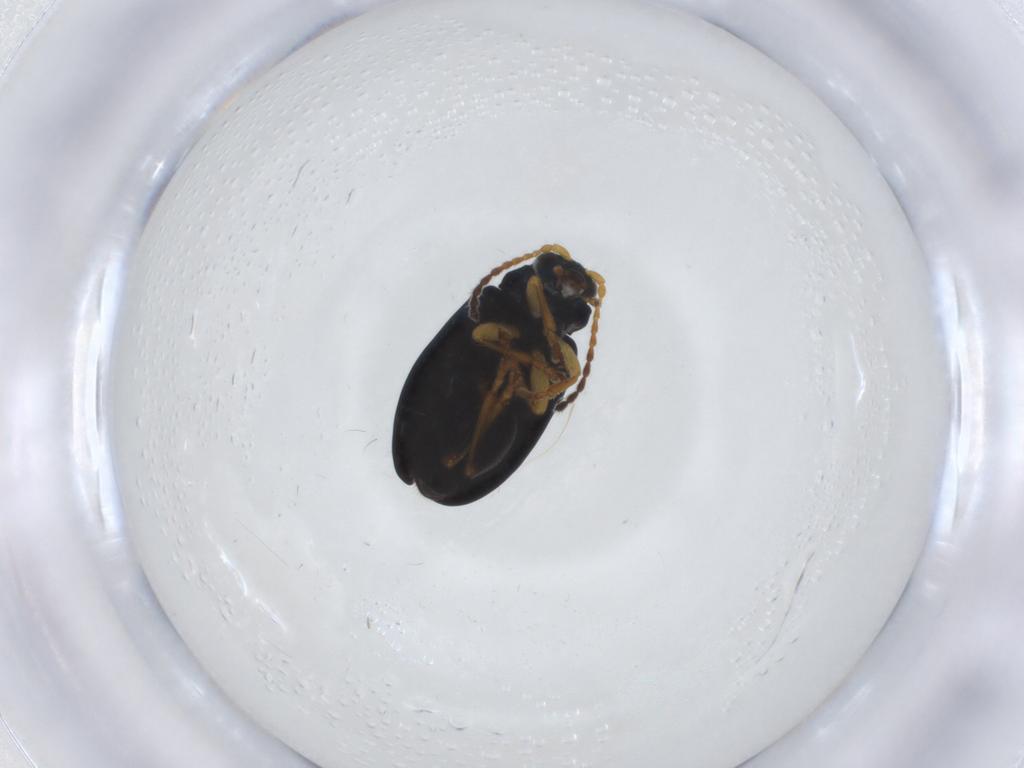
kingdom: Animalia
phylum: Arthropoda
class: Insecta
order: Coleoptera
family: Chrysomelidae
